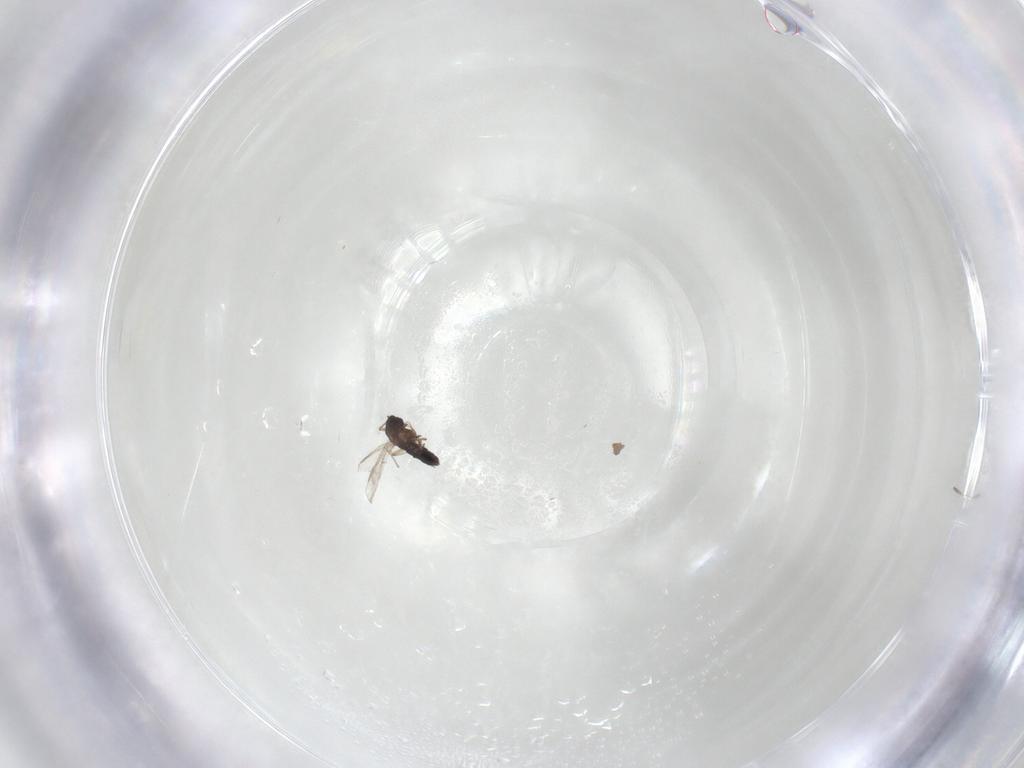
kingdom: Animalia
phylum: Arthropoda
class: Insecta
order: Diptera
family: Chironomidae
